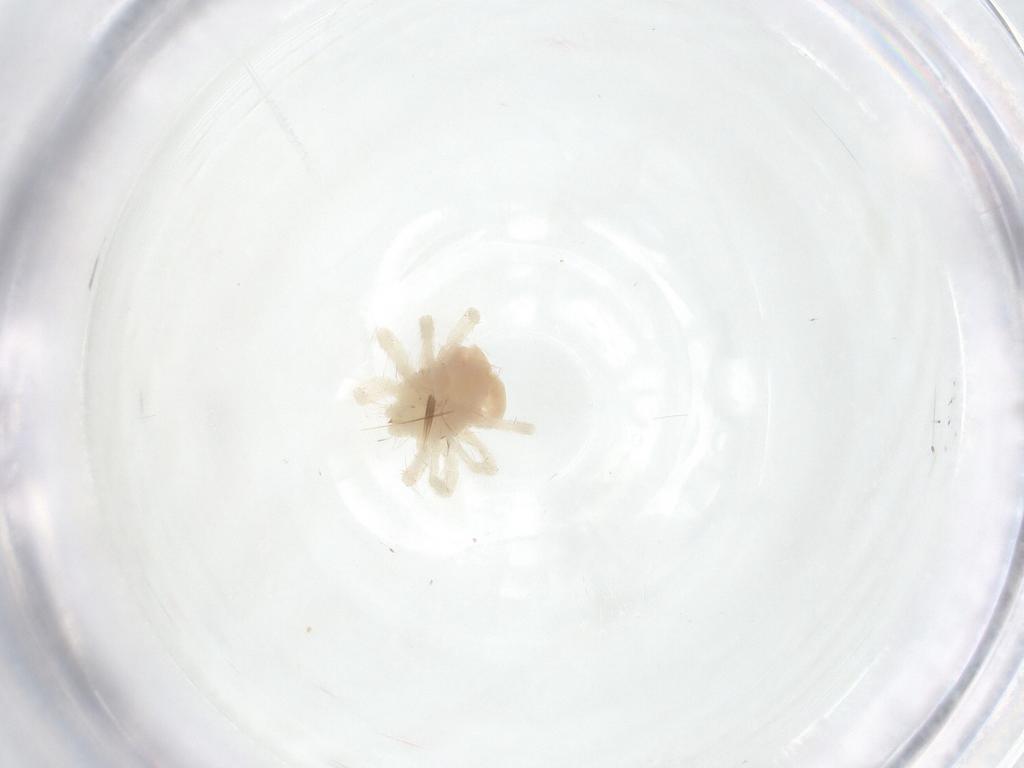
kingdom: Animalia
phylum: Arthropoda
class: Arachnida
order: Trombidiformes
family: Anystidae
